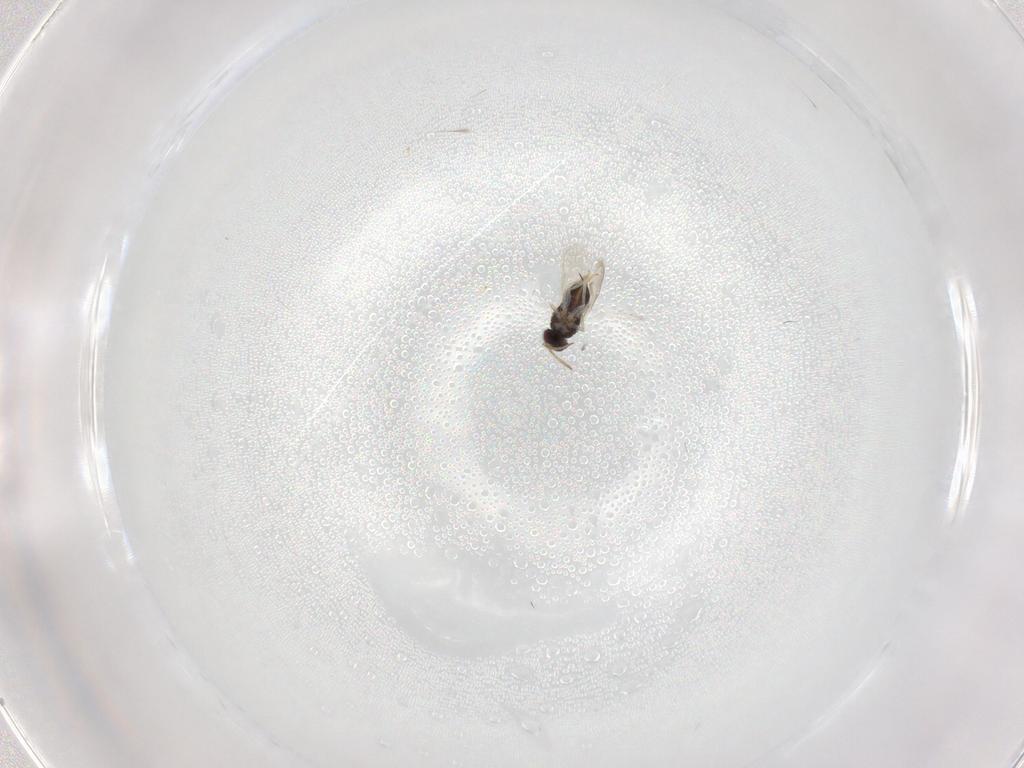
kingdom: Animalia
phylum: Arthropoda
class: Insecta
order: Hymenoptera
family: Aphelinidae
